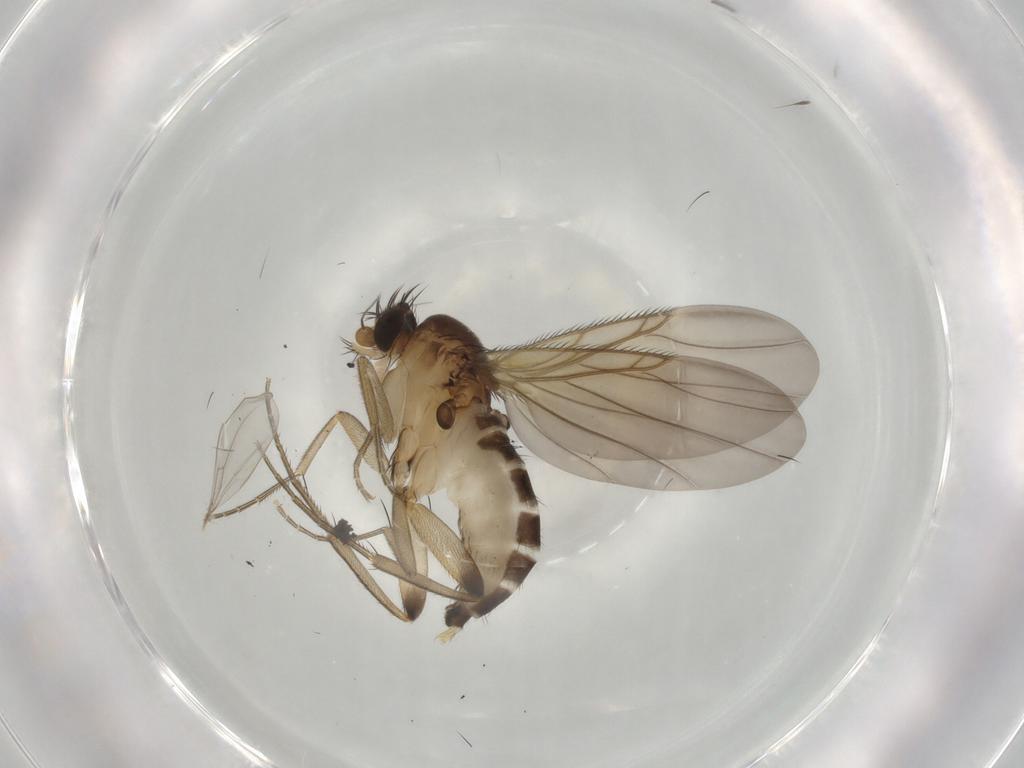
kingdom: Animalia
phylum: Arthropoda
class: Insecta
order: Diptera
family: Phoridae
